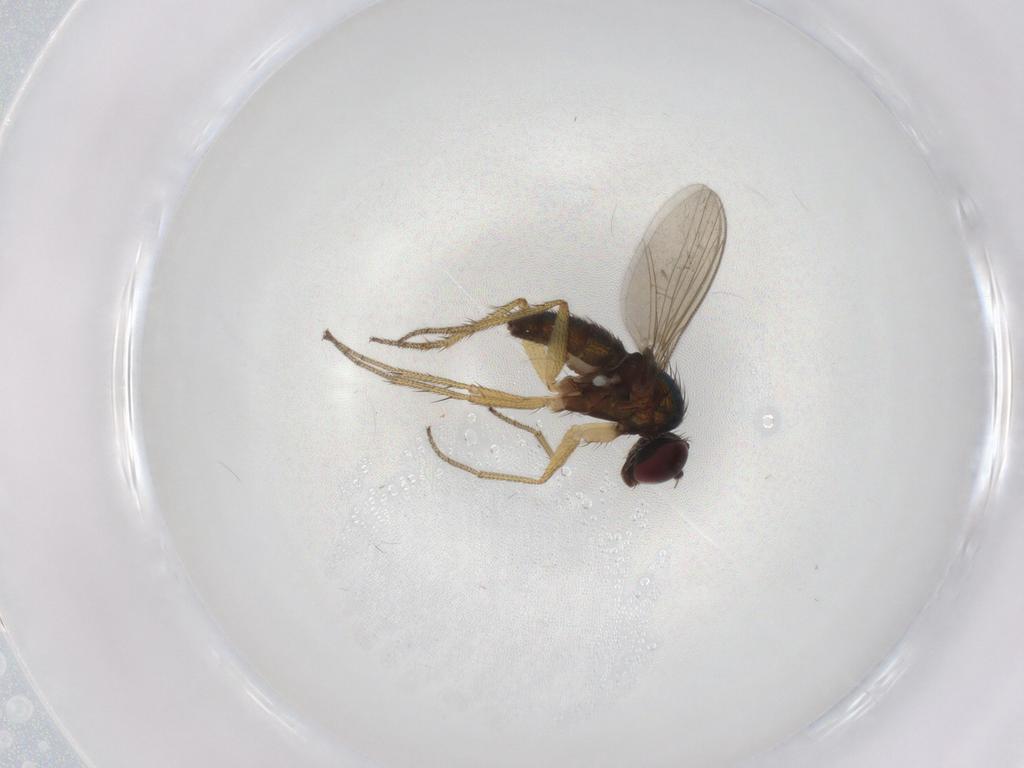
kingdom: Animalia
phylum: Arthropoda
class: Insecta
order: Diptera
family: Dolichopodidae
